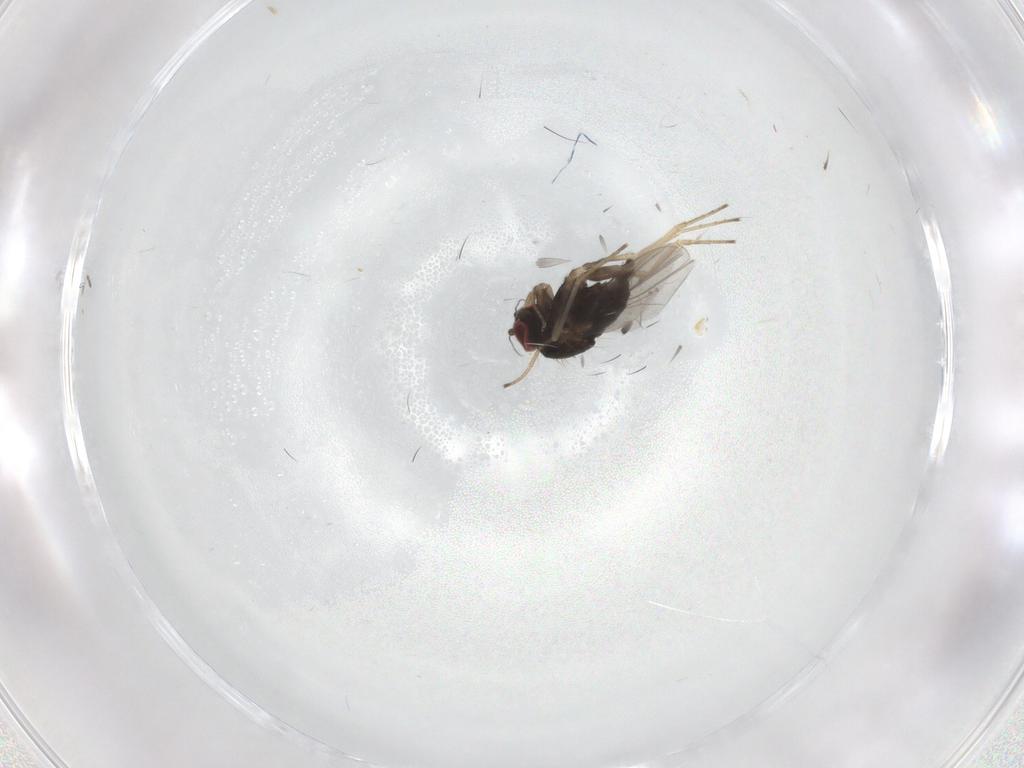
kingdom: Animalia
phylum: Arthropoda
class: Insecta
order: Diptera
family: Dolichopodidae
